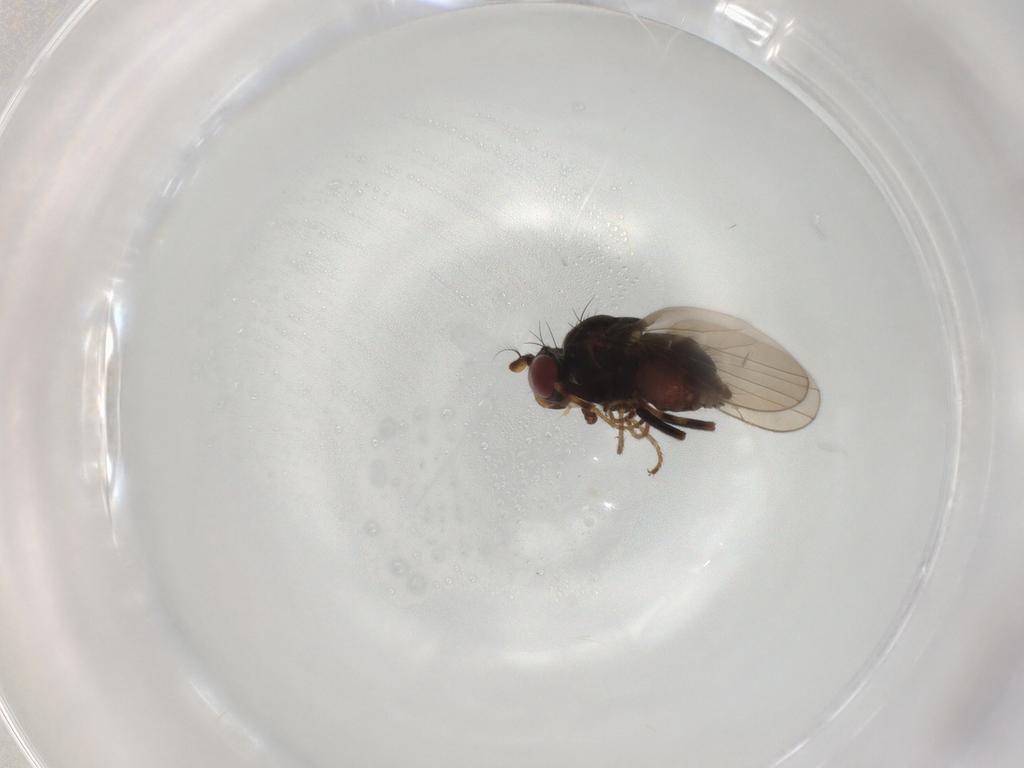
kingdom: Animalia
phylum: Arthropoda
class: Insecta
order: Diptera
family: Ephydridae
